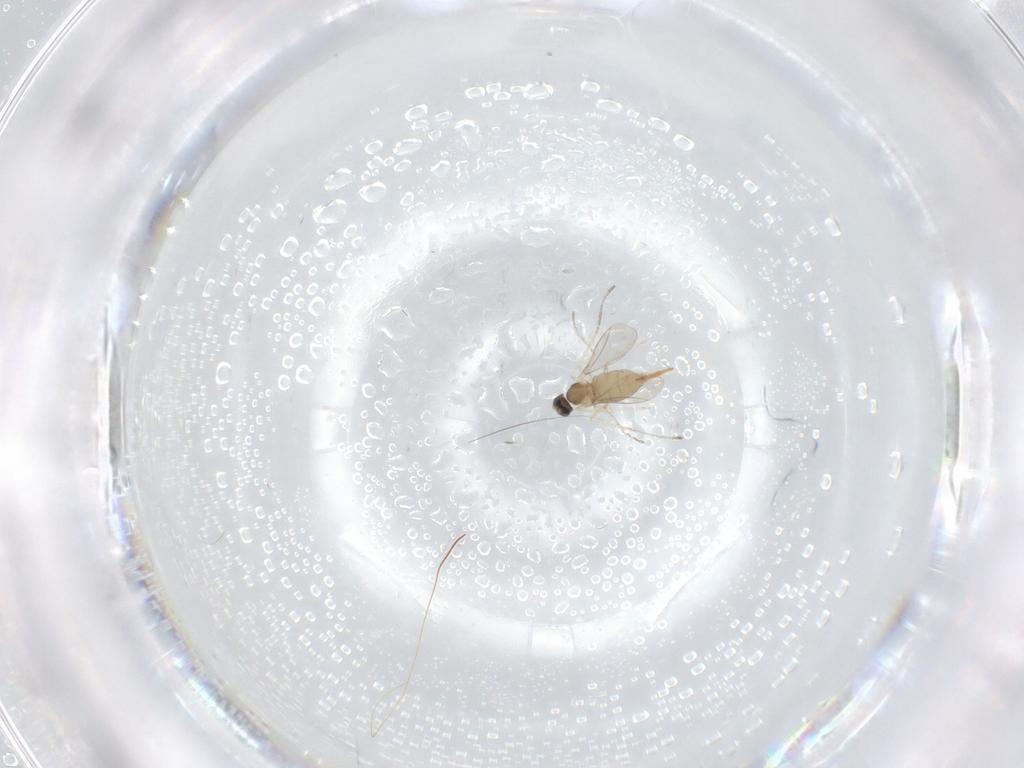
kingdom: Animalia
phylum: Arthropoda
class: Insecta
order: Diptera
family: Cecidomyiidae
